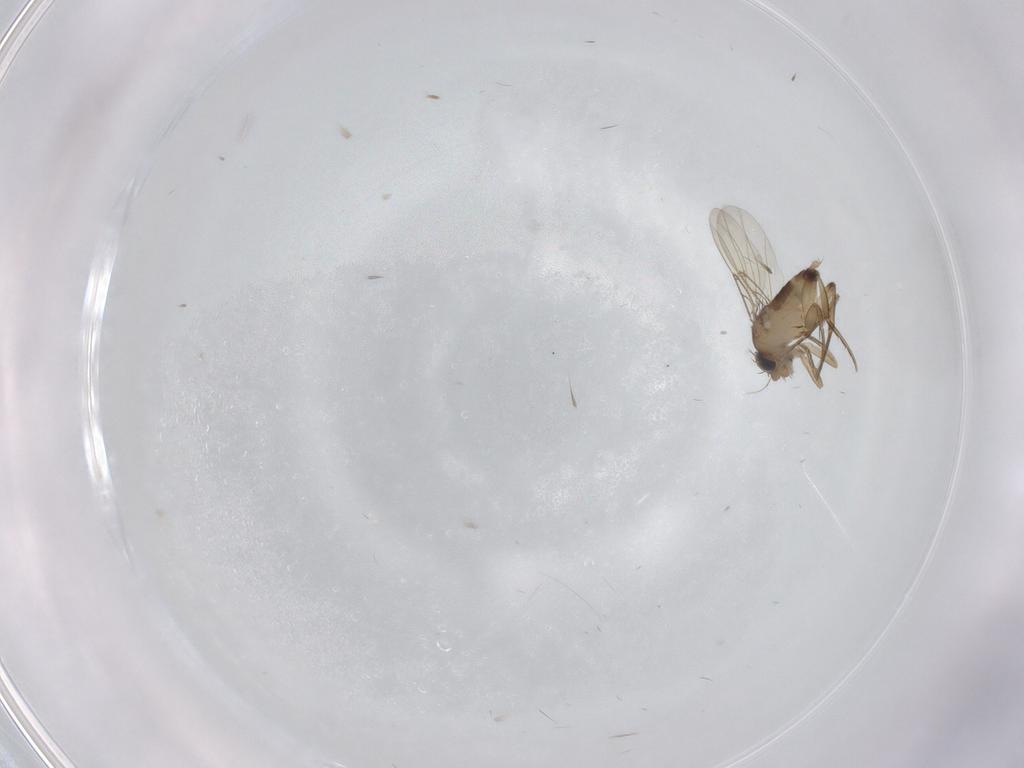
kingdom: Animalia
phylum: Arthropoda
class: Insecta
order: Diptera
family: Phoridae
